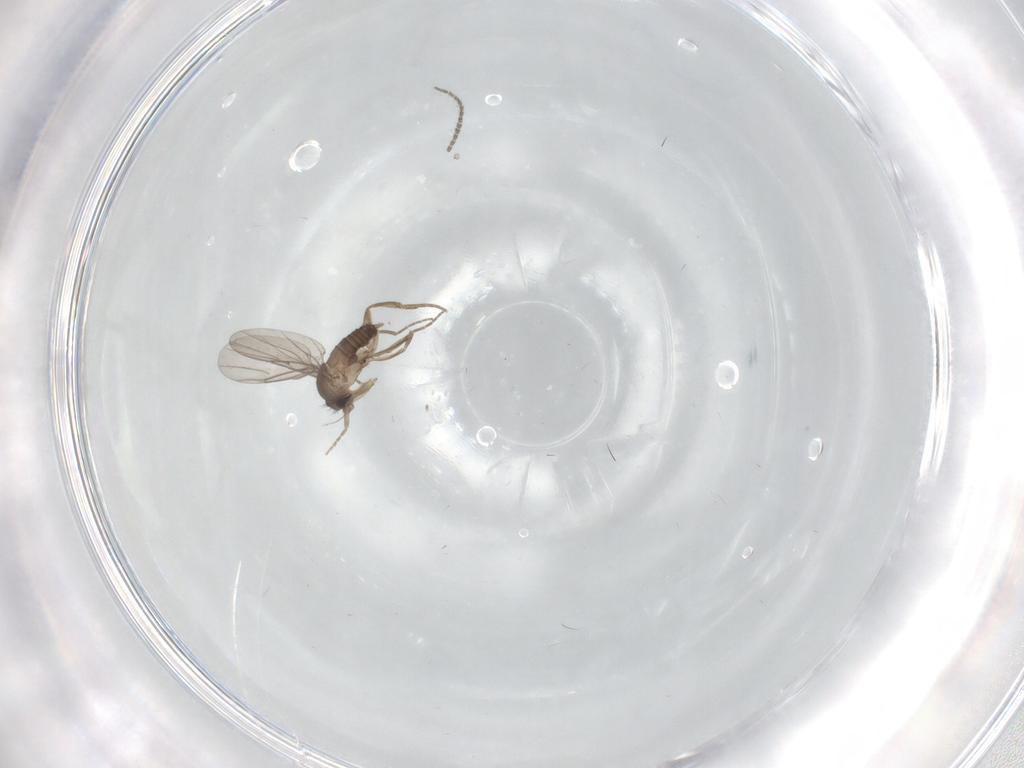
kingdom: Animalia
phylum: Arthropoda
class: Insecta
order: Diptera
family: Sciaridae
